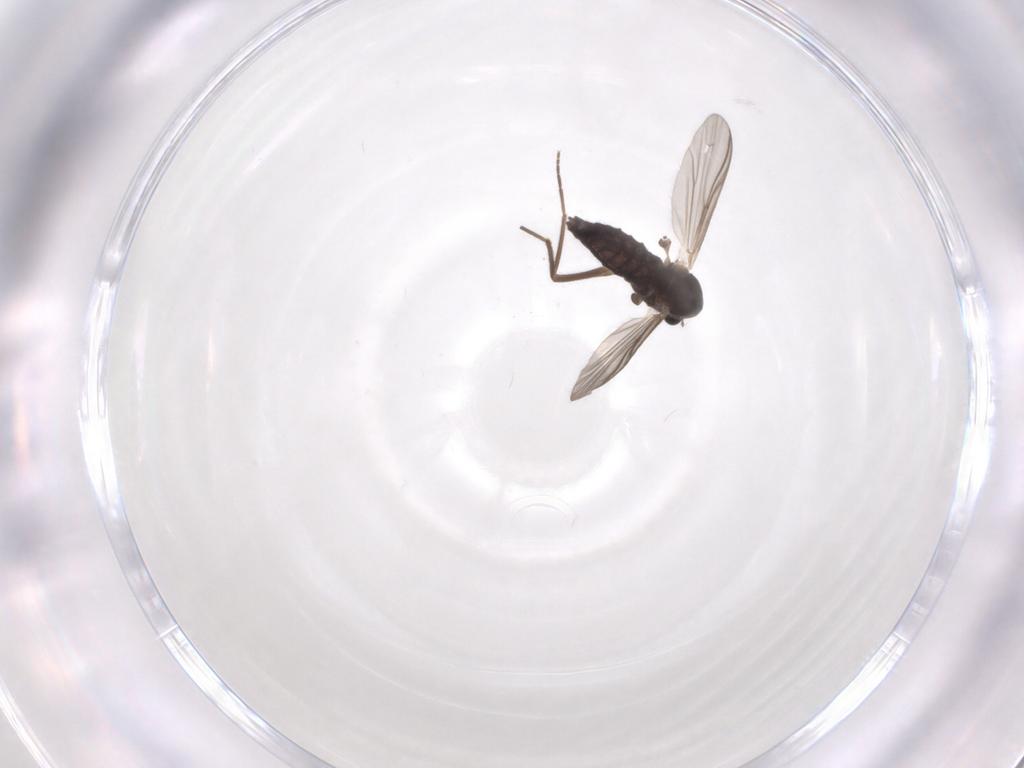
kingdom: Animalia
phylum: Arthropoda
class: Insecta
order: Diptera
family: Chironomidae
